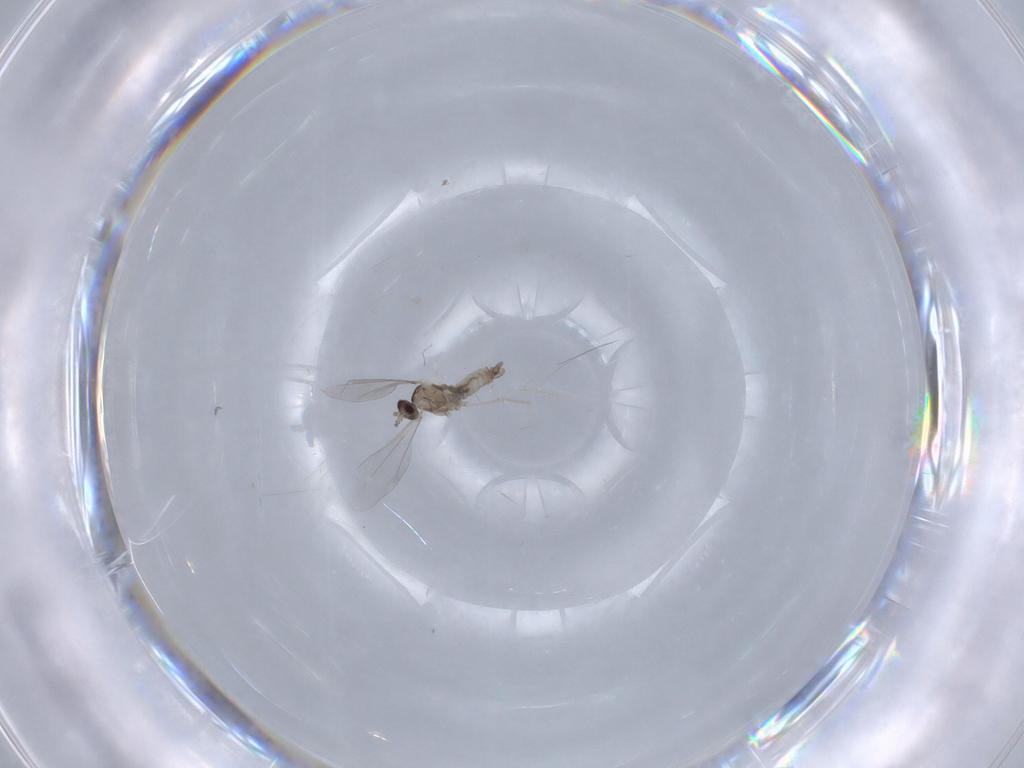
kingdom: Animalia
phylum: Arthropoda
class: Insecta
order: Diptera
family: Cecidomyiidae
